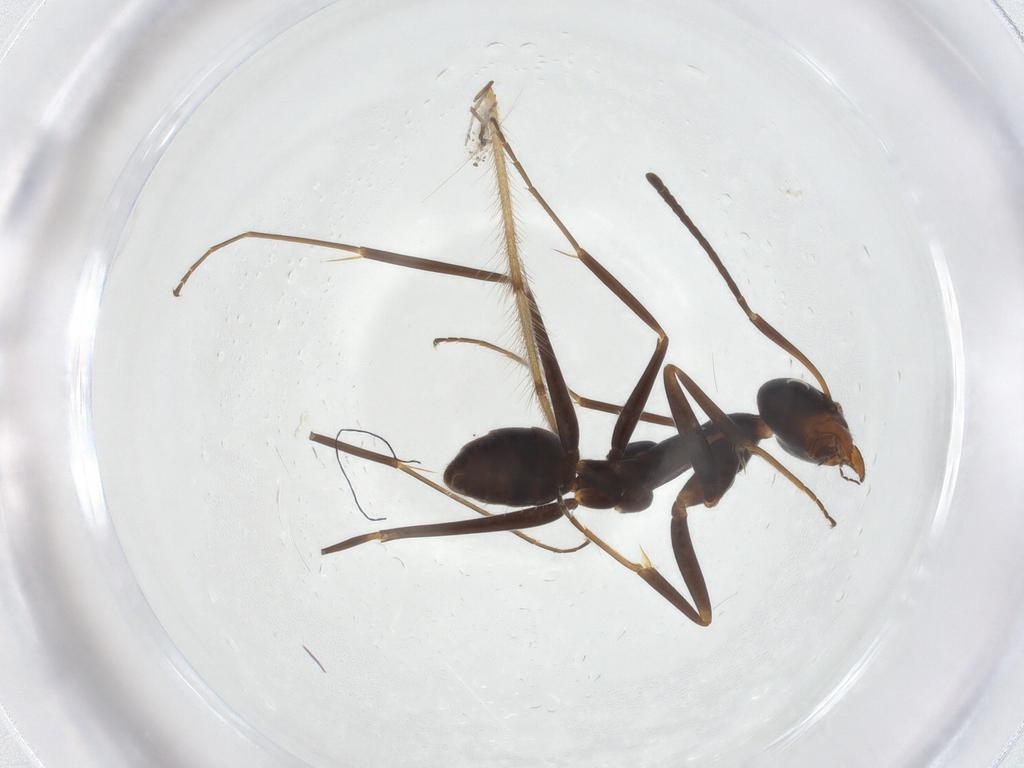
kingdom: Animalia
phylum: Arthropoda
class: Insecta
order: Hymenoptera
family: Formicidae
